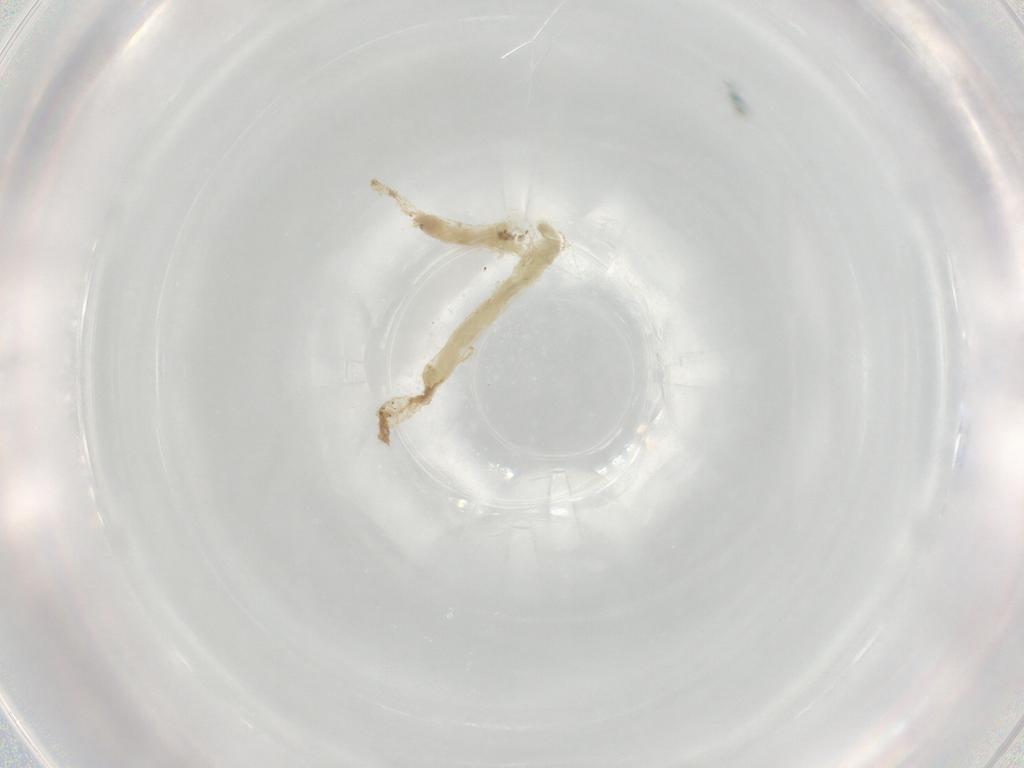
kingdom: Animalia
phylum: Arthropoda
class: Insecta
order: Diptera
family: Chironomidae
